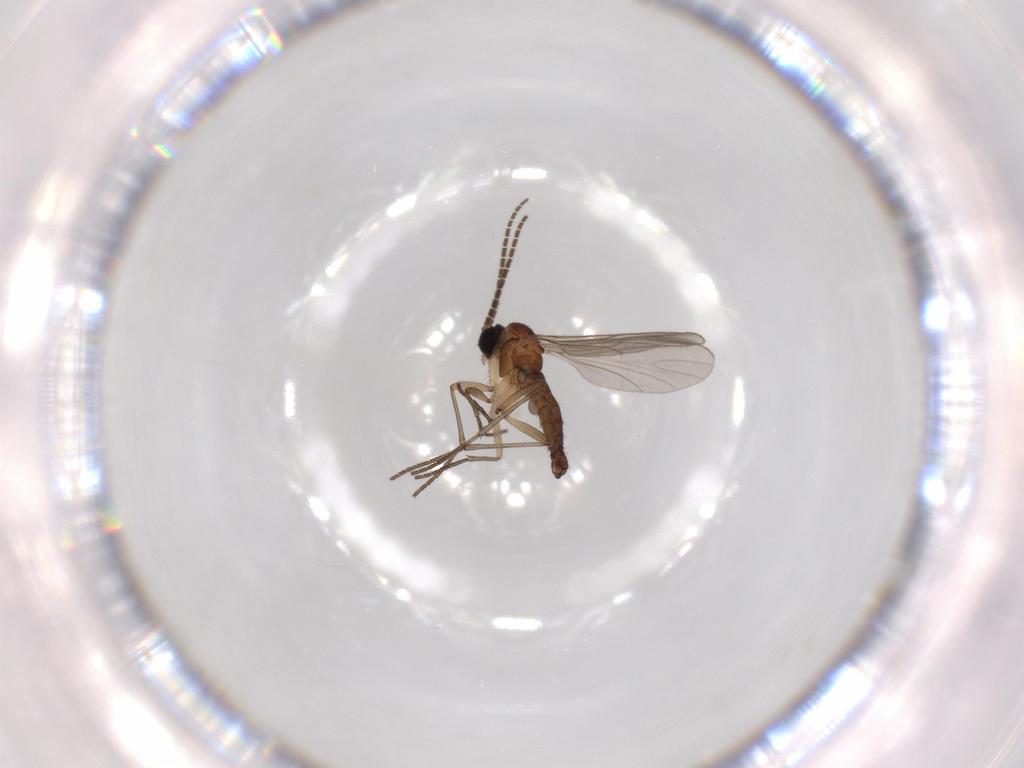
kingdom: Animalia
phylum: Arthropoda
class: Insecta
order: Diptera
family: Sciaridae
